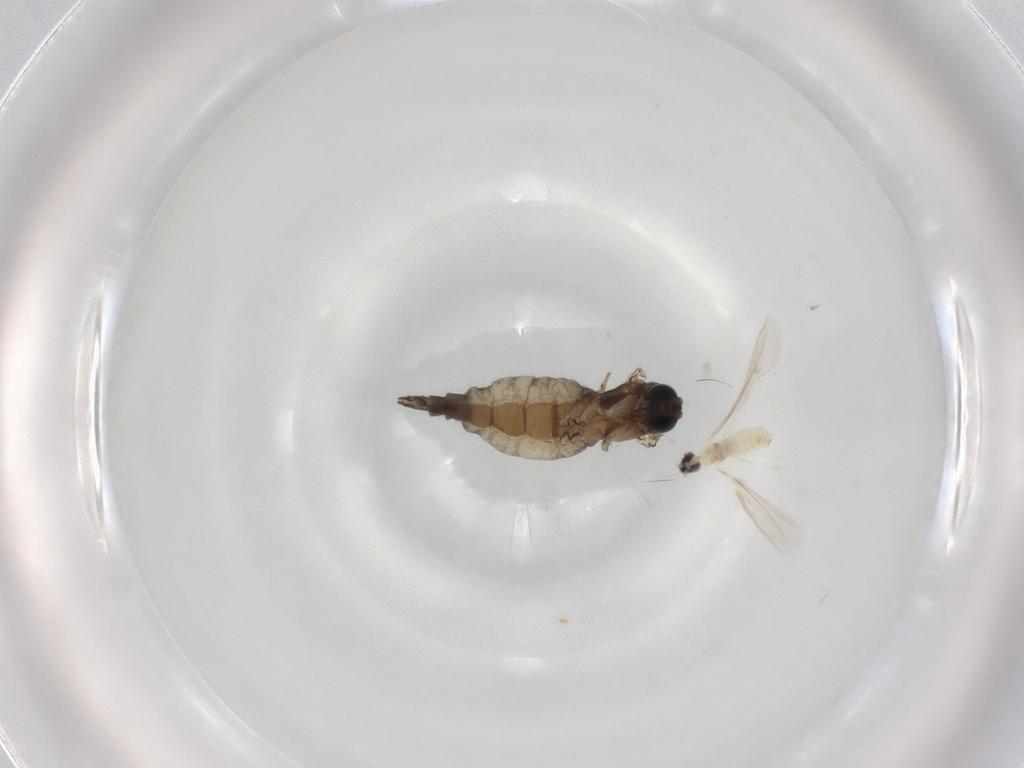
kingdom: Animalia
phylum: Arthropoda
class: Insecta
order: Diptera
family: Sciaridae
